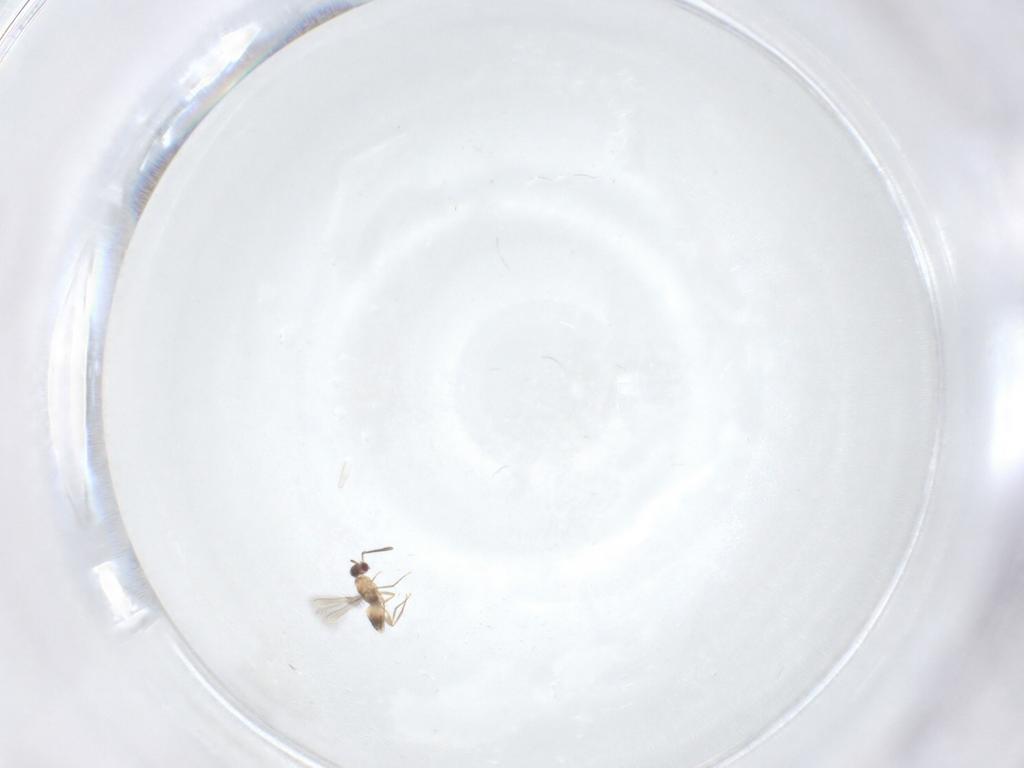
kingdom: Animalia
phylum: Arthropoda
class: Insecta
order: Hymenoptera
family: Mymaridae
